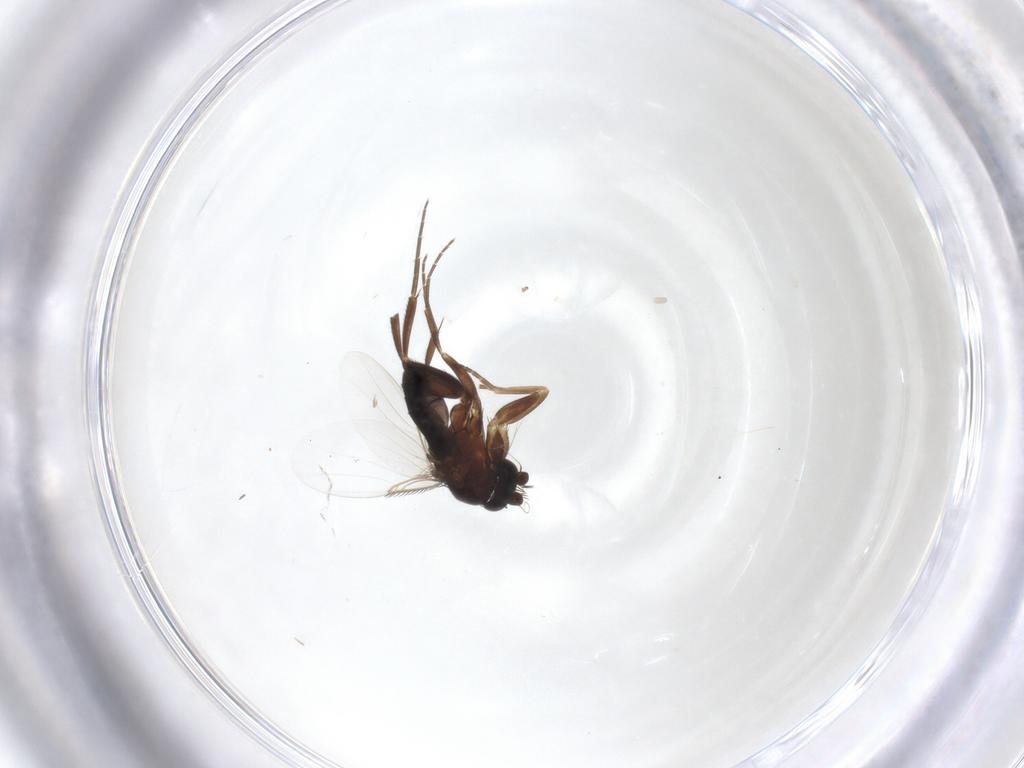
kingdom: Animalia
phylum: Arthropoda
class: Insecta
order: Diptera
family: Phoridae
